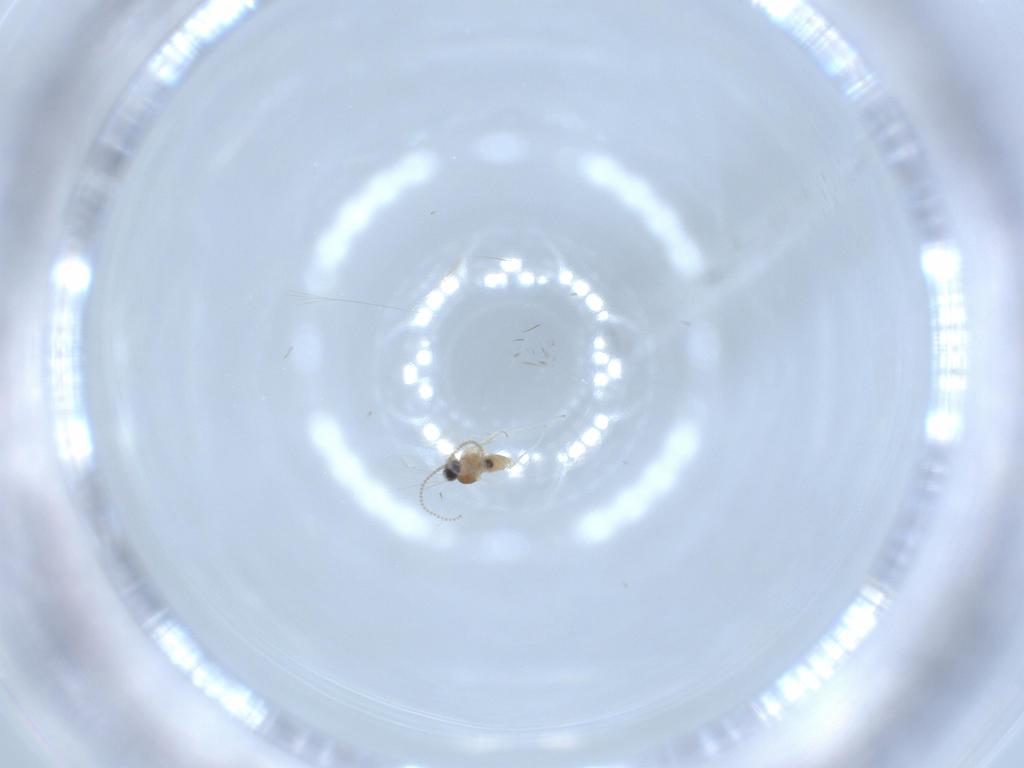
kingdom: Animalia
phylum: Arthropoda
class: Insecta
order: Diptera
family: Cecidomyiidae
